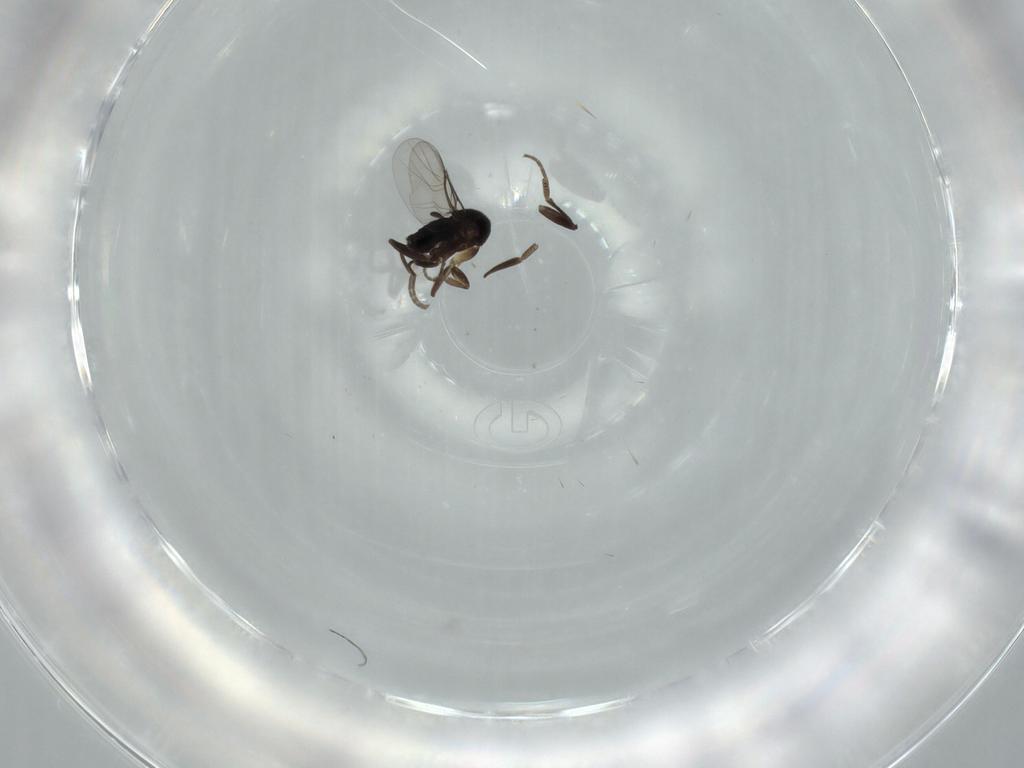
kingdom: Animalia
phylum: Arthropoda
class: Insecta
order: Diptera
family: Phoridae
